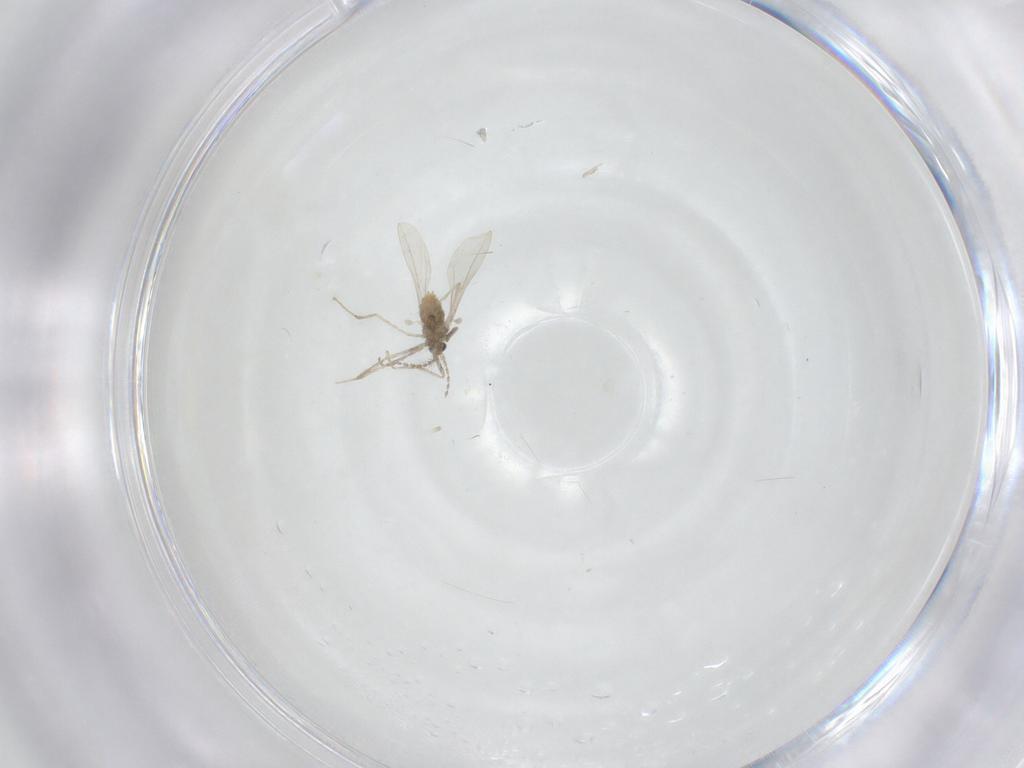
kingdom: Animalia
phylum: Arthropoda
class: Insecta
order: Diptera
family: Cecidomyiidae
